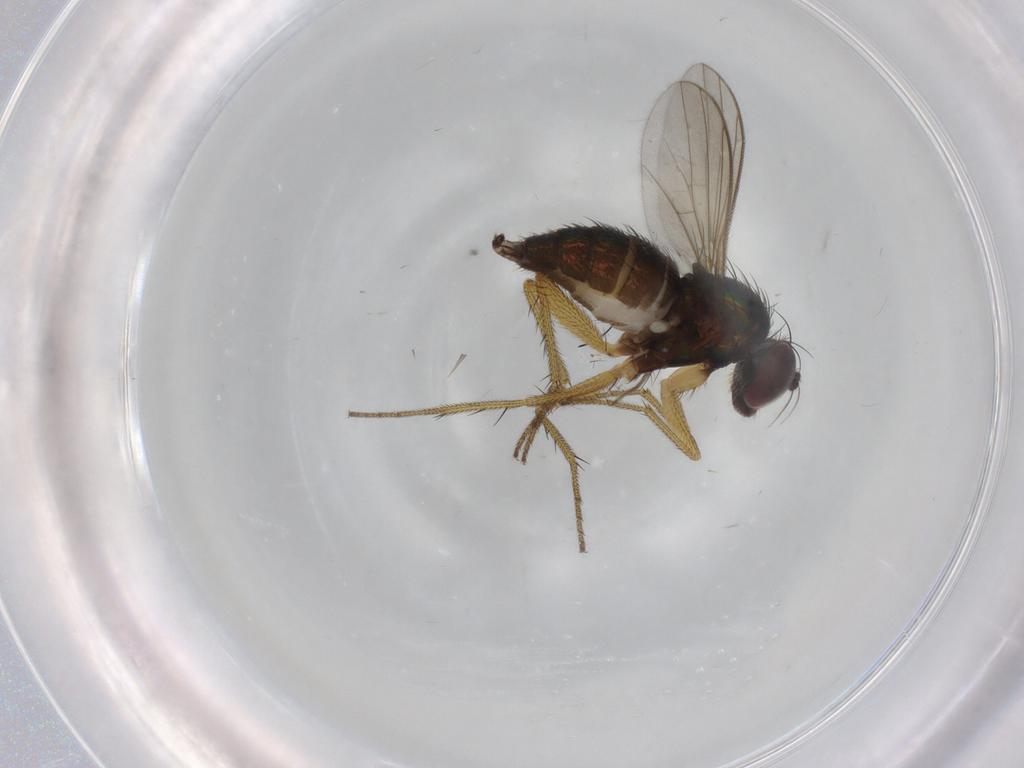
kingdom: Animalia
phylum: Arthropoda
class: Insecta
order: Diptera
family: Dolichopodidae
